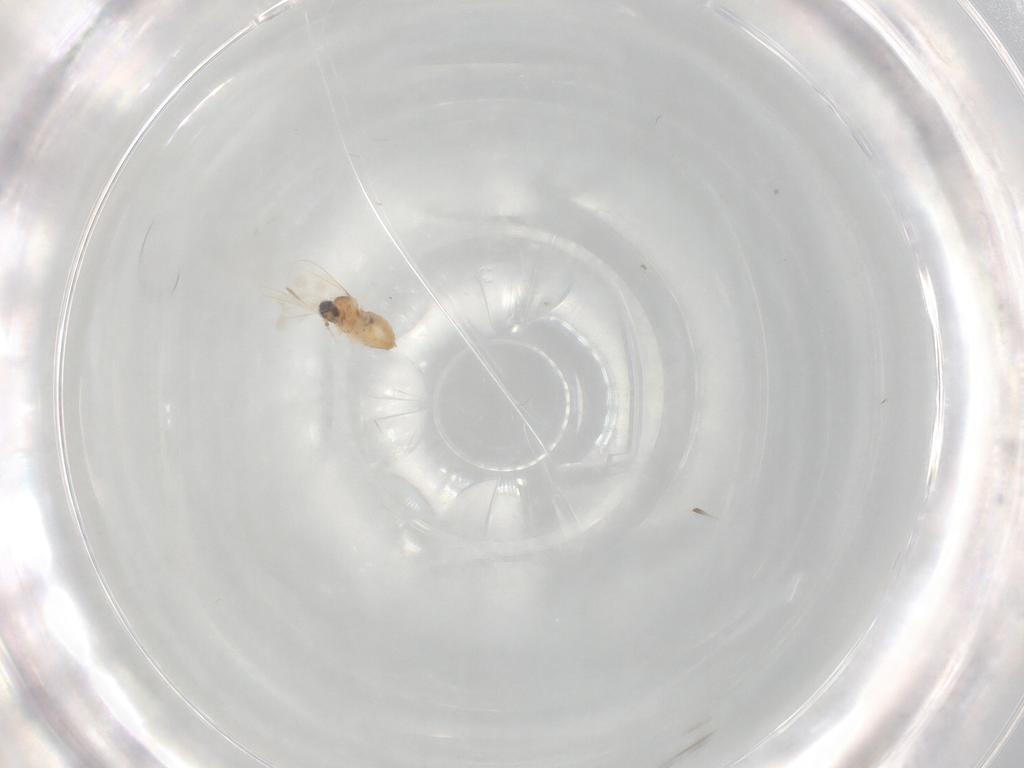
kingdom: Animalia
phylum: Arthropoda
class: Insecta
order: Diptera
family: Cecidomyiidae
